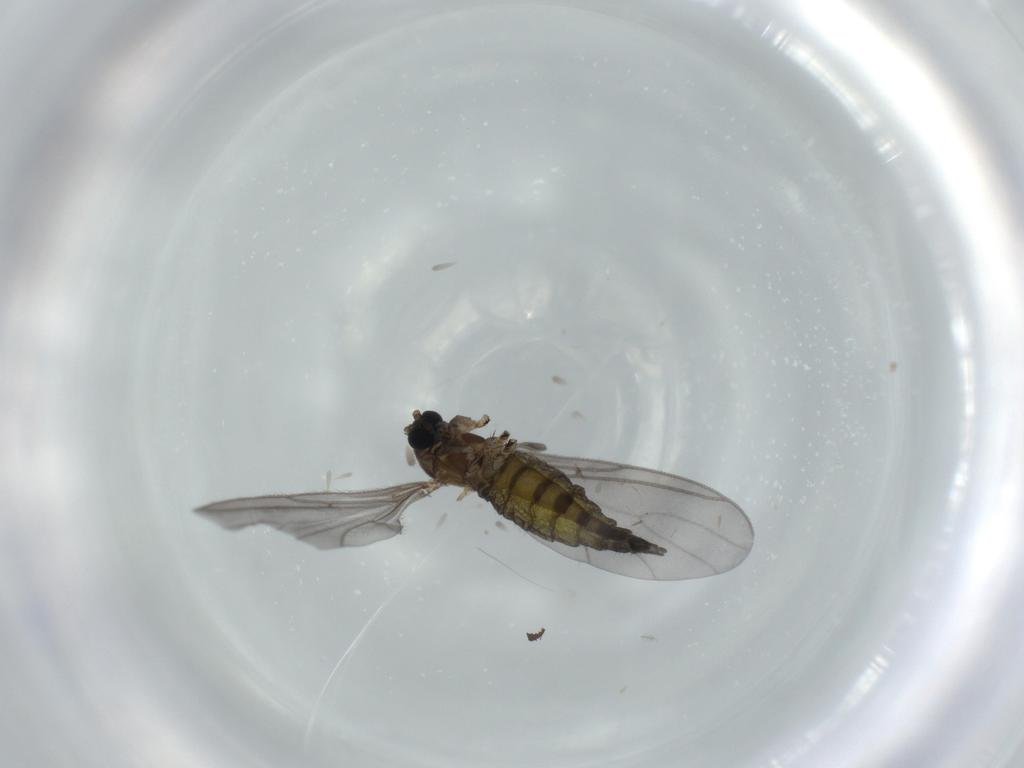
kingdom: Animalia
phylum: Arthropoda
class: Insecta
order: Diptera
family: Sciaridae
